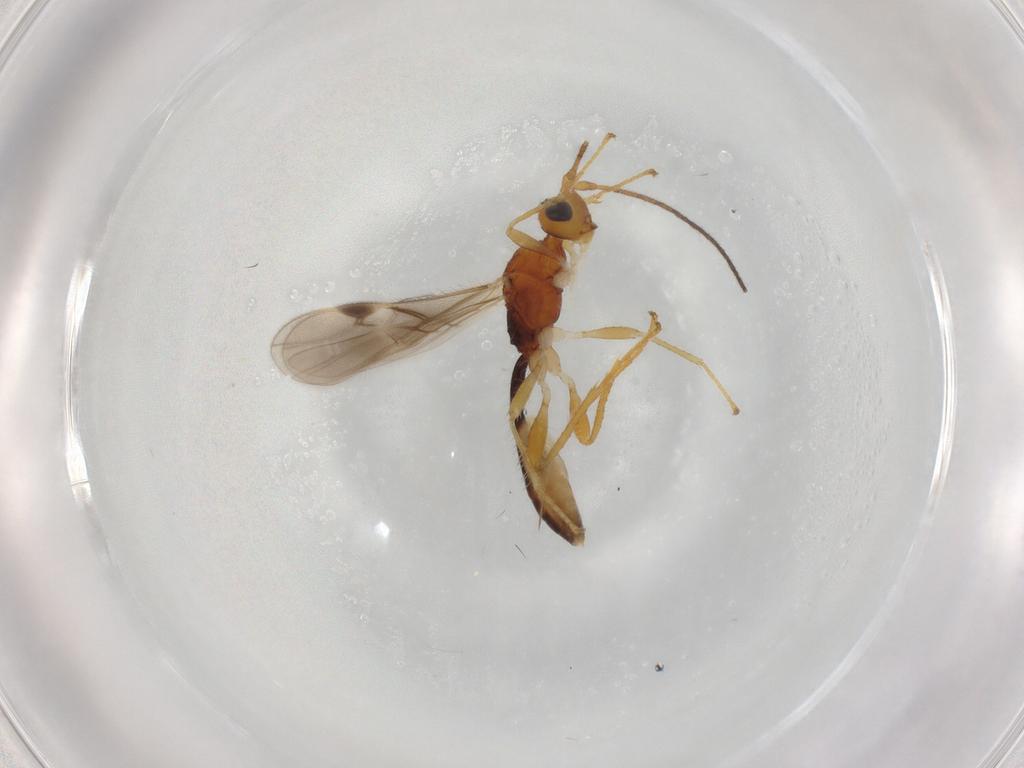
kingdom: Animalia
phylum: Arthropoda
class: Insecta
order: Hymenoptera
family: Braconidae
